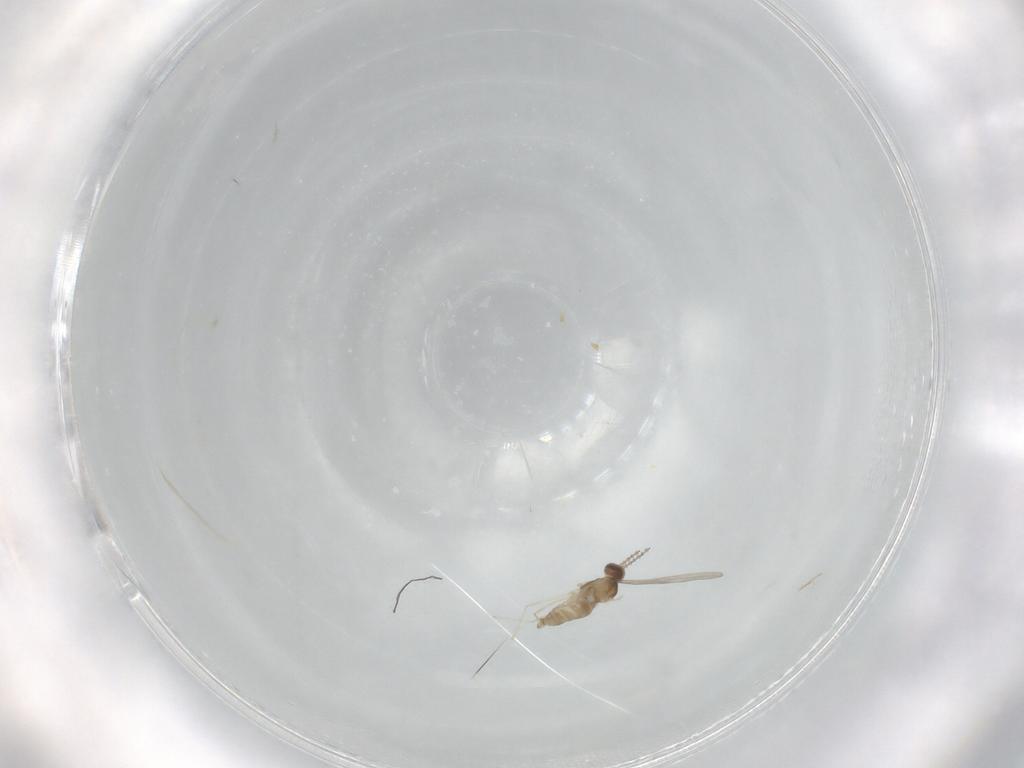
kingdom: Animalia
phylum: Arthropoda
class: Insecta
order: Diptera
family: Cecidomyiidae
